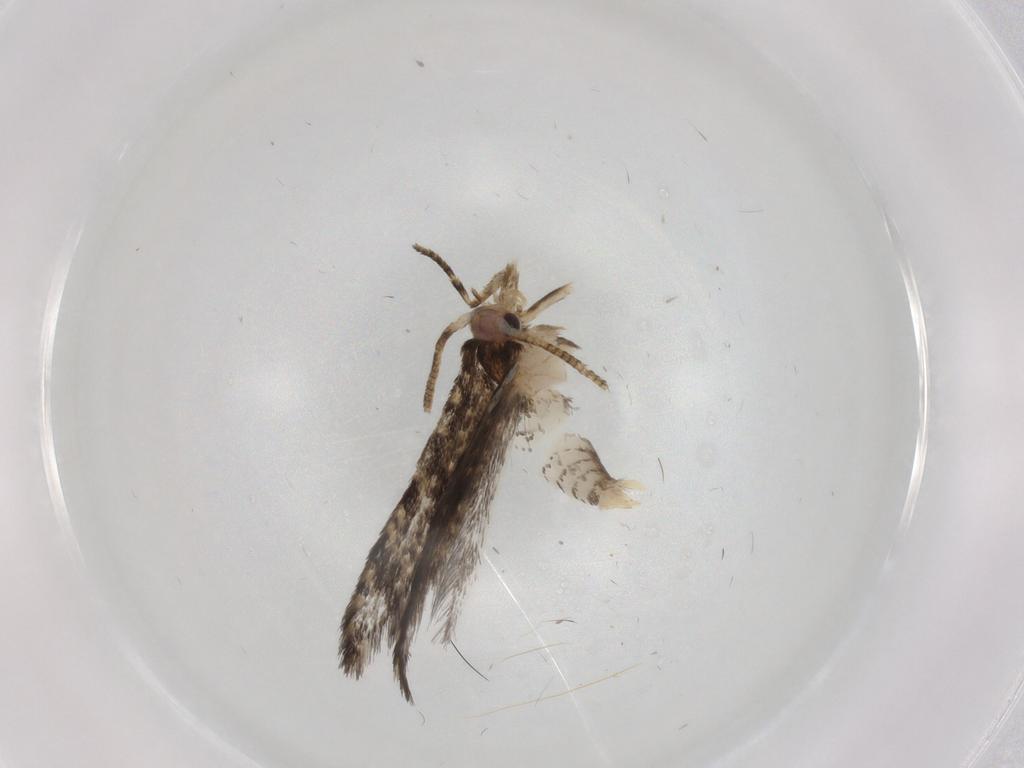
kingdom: Animalia
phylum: Arthropoda
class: Insecta
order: Lepidoptera
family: Tineidae
